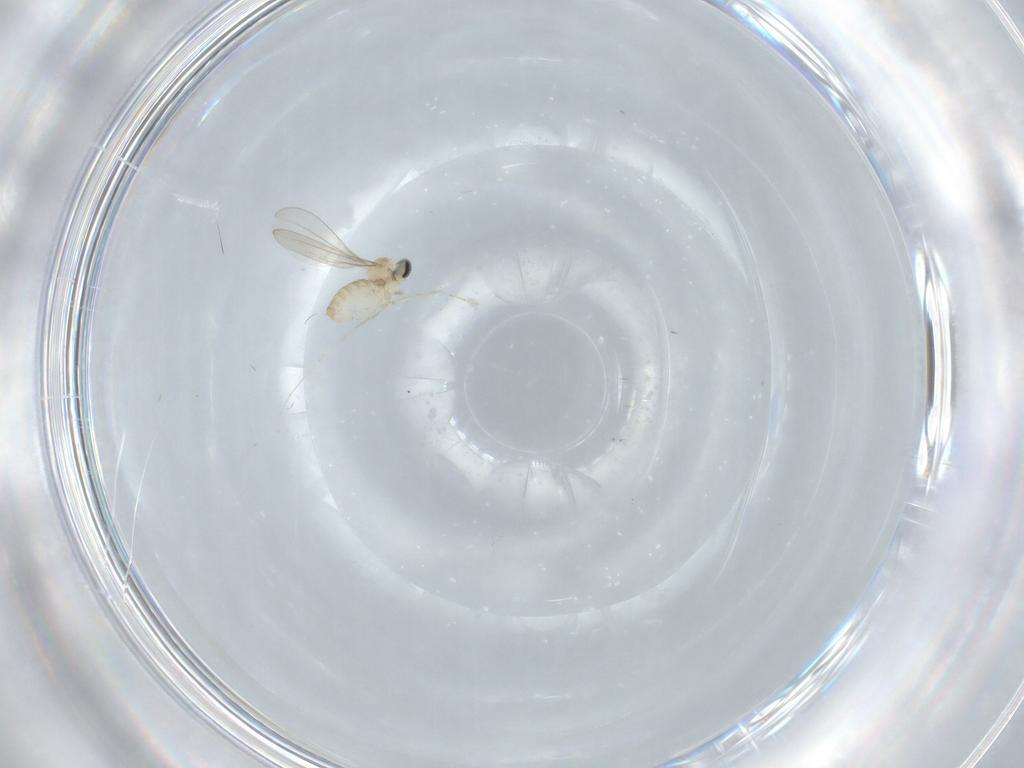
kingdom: Animalia
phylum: Arthropoda
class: Insecta
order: Diptera
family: Cecidomyiidae
